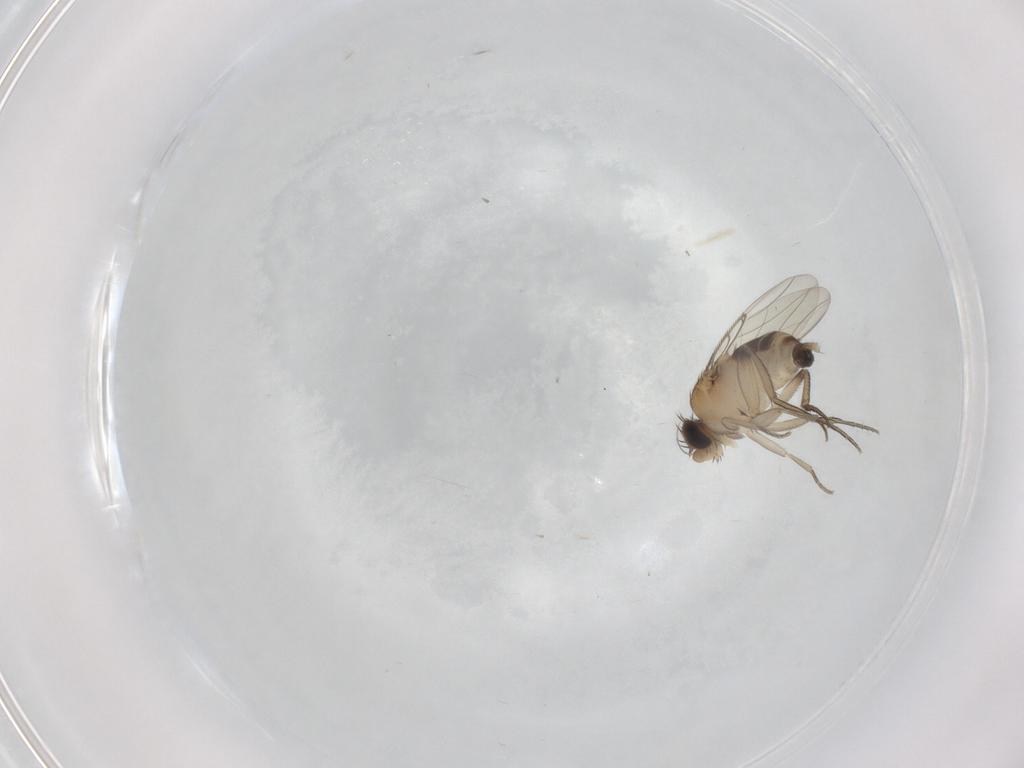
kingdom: Animalia
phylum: Arthropoda
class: Insecta
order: Diptera
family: Phoridae
